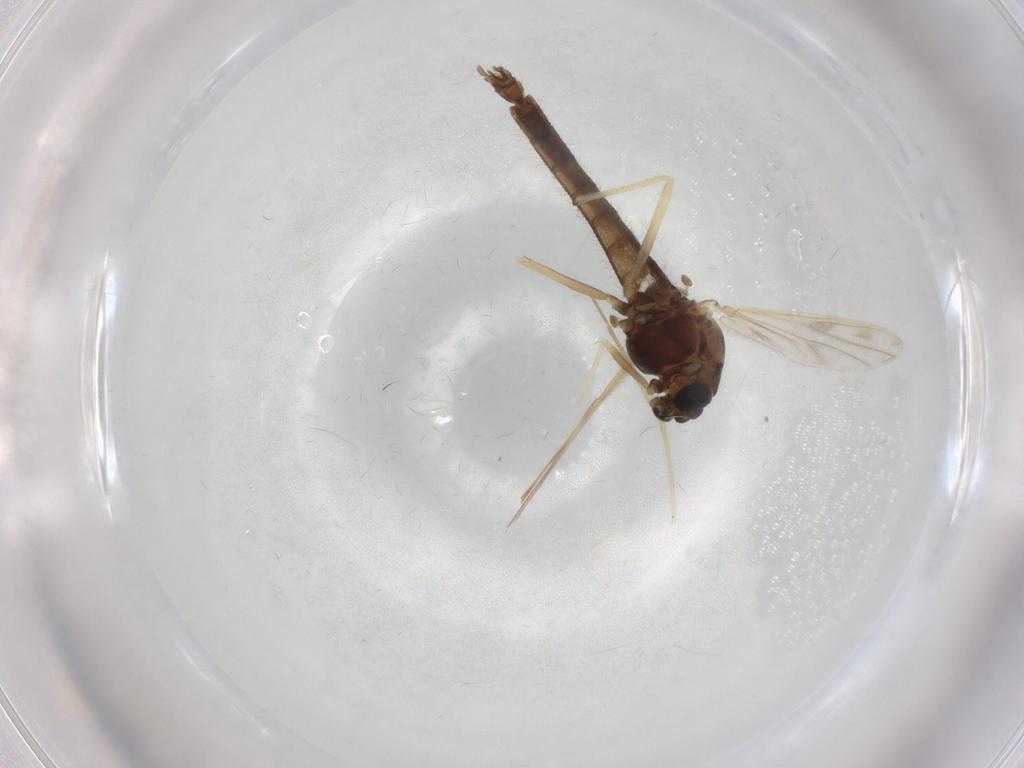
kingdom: Animalia
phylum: Arthropoda
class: Insecta
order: Diptera
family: Chironomidae
